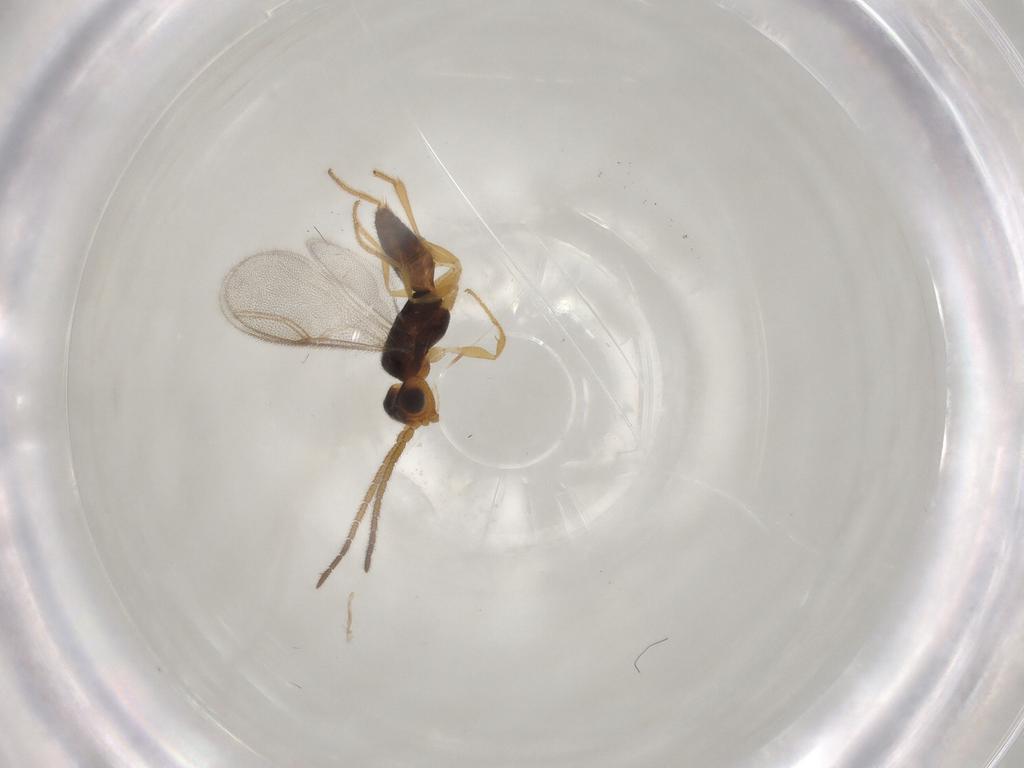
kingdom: Animalia
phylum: Arthropoda
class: Insecta
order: Hymenoptera
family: Dryinidae
